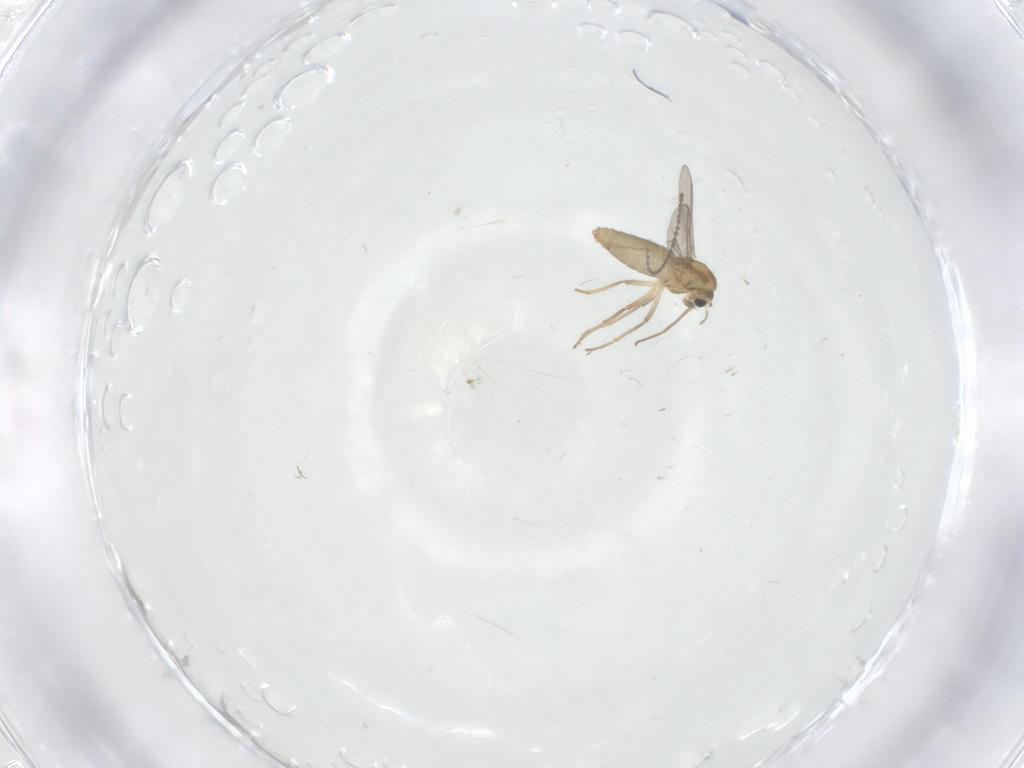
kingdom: Animalia
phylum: Arthropoda
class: Insecta
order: Diptera
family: Chironomidae
